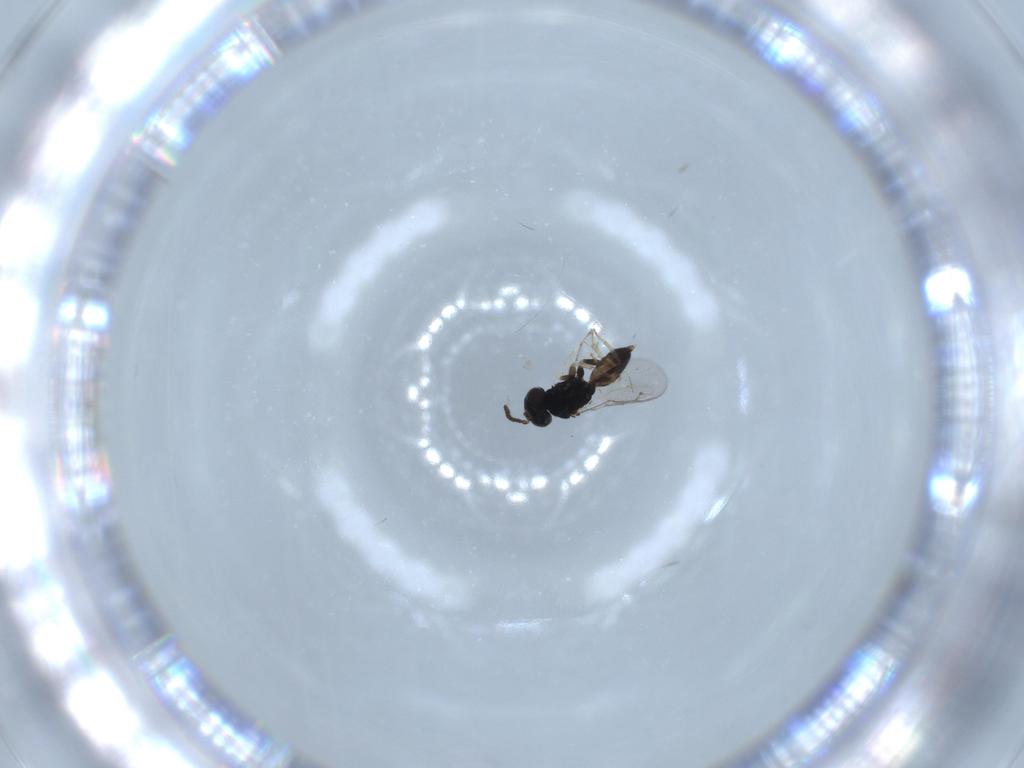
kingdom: Animalia
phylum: Arthropoda
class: Insecta
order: Hymenoptera
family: Pteromalidae
